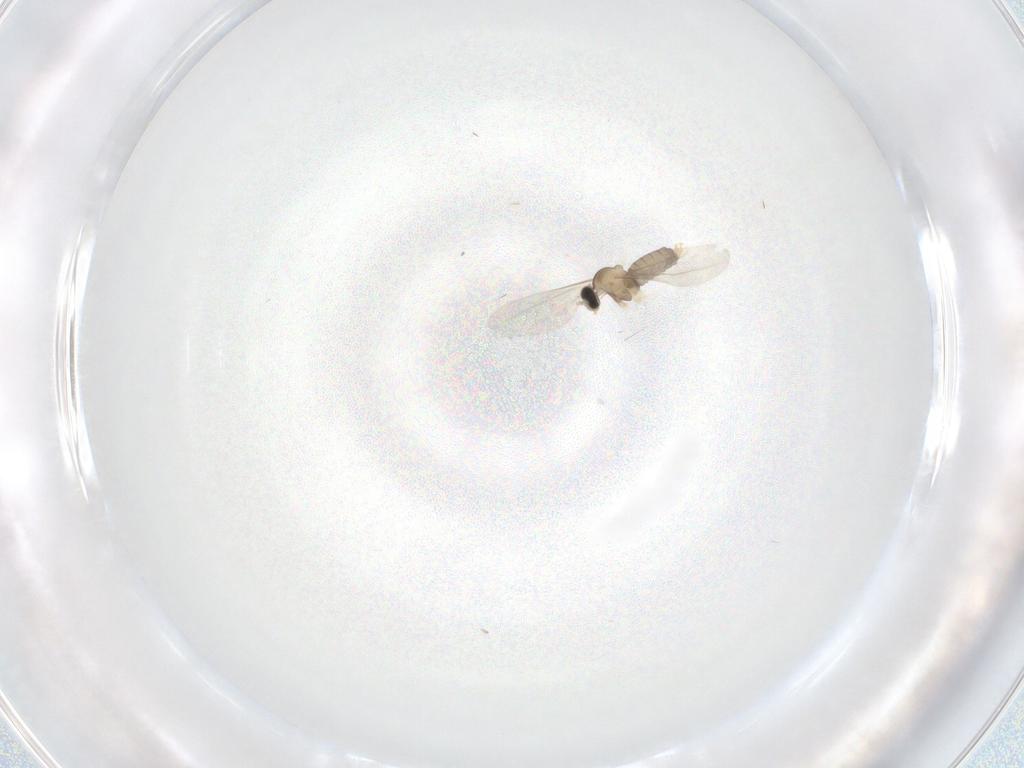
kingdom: Animalia
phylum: Arthropoda
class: Insecta
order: Diptera
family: Cecidomyiidae
